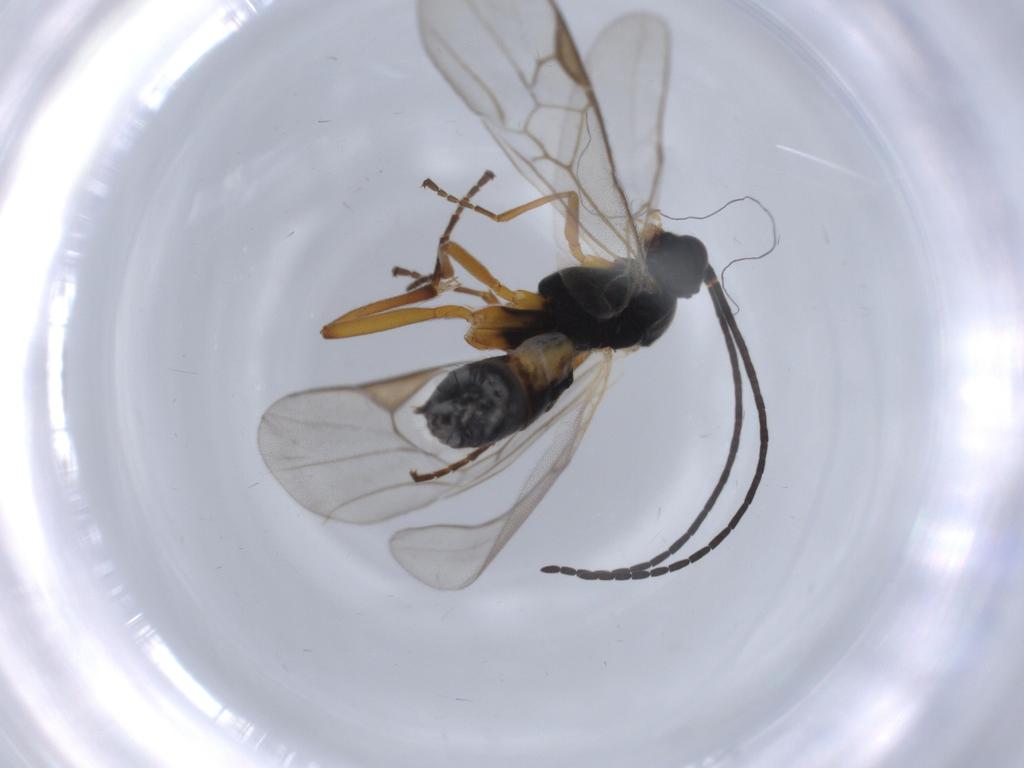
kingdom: Animalia
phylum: Arthropoda
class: Insecta
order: Hymenoptera
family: Braconidae
